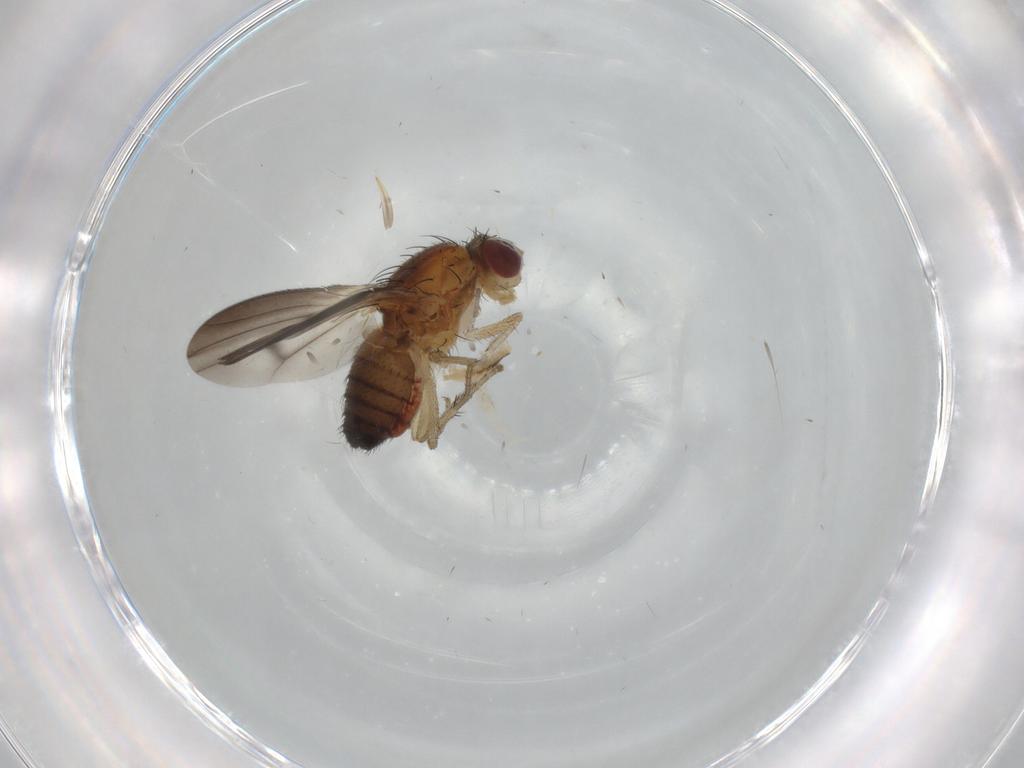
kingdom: Animalia
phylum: Arthropoda
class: Insecta
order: Diptera
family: Heleomyzidae
